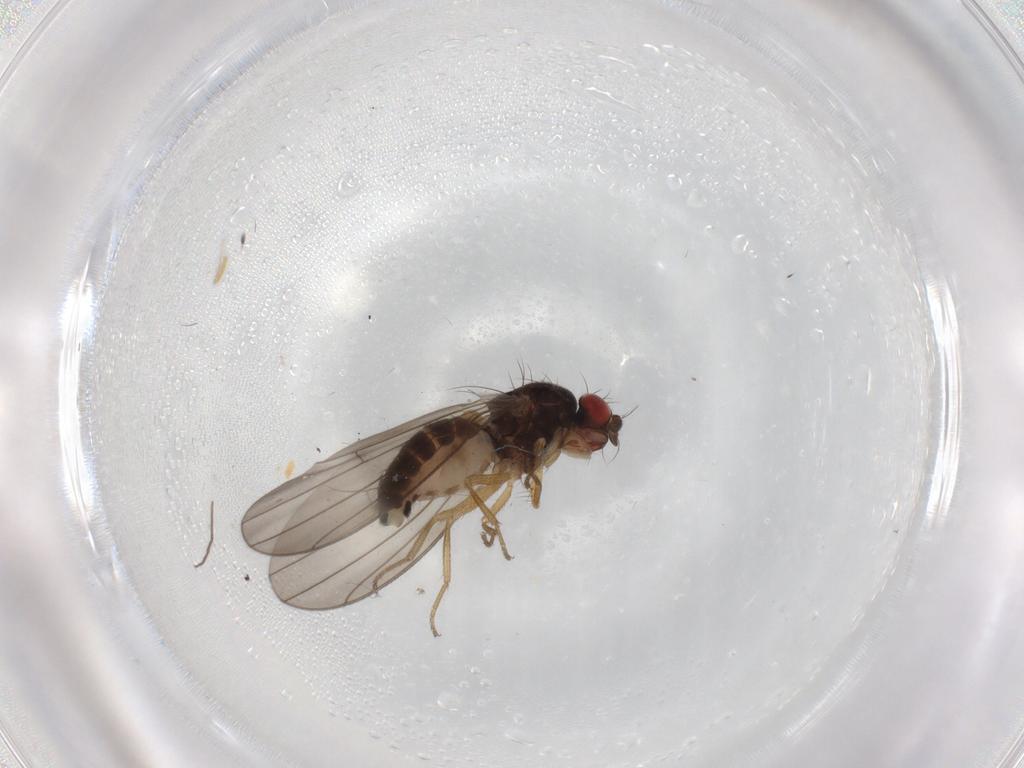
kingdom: Animalia
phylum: Arthropoda
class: Insecta
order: Diptera
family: Drosophilidae
